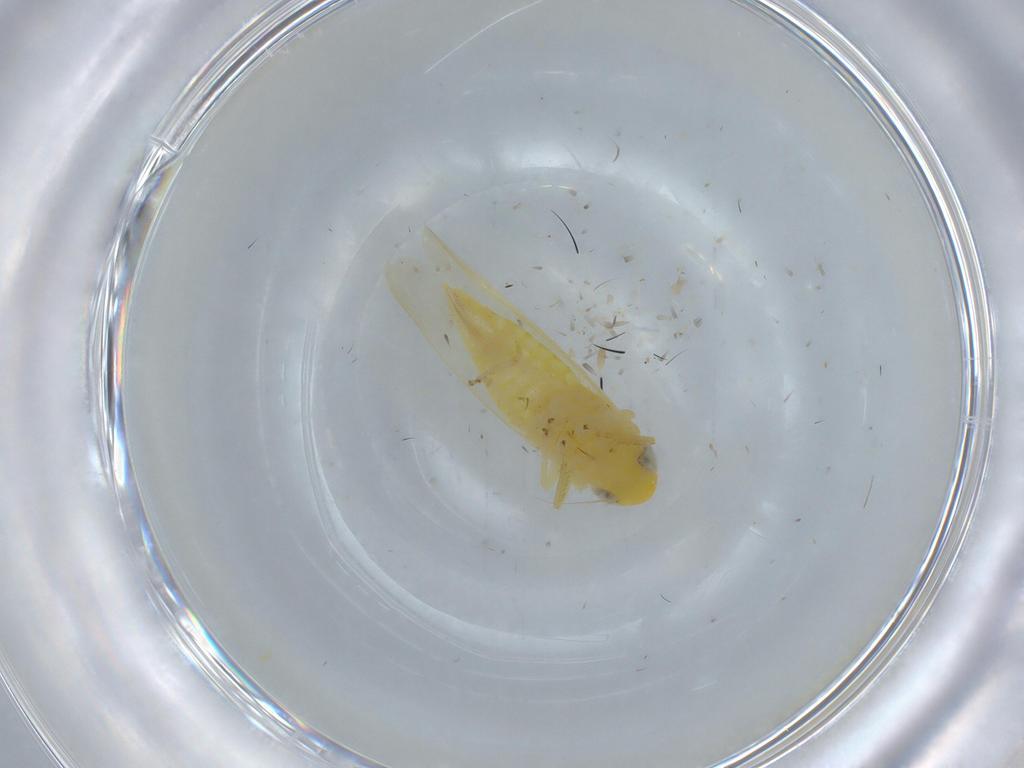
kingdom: Animalia
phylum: Arthropoda
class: Insecta
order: Hemiptera
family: Cicadellidae
